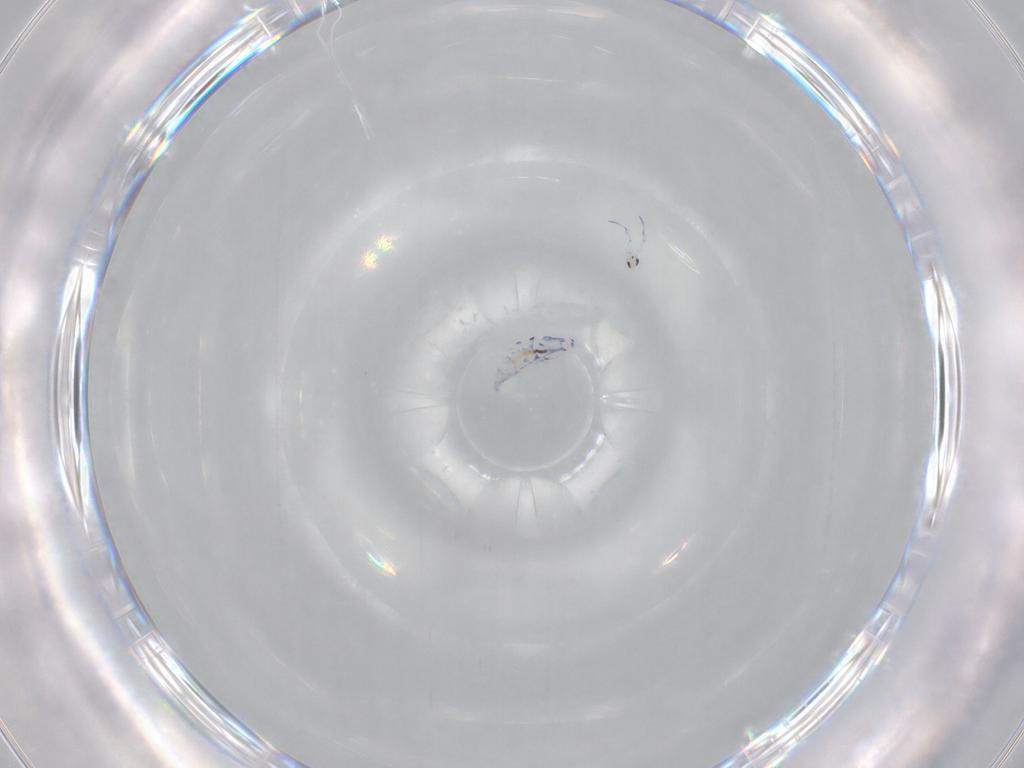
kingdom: Animalia
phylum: Arthropoda
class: Collembola
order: Entomobryomorpha
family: Entomobryidae
